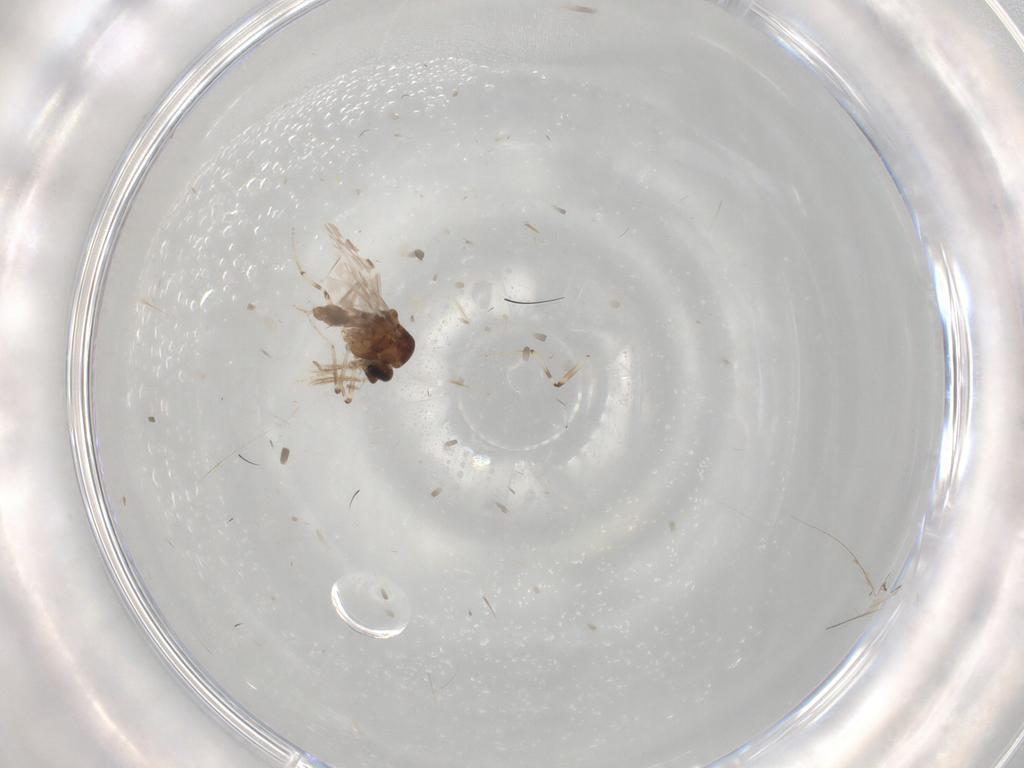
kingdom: Animalia
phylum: Arthropoda
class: Insecta
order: Diptera
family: Ceratopogonidae
